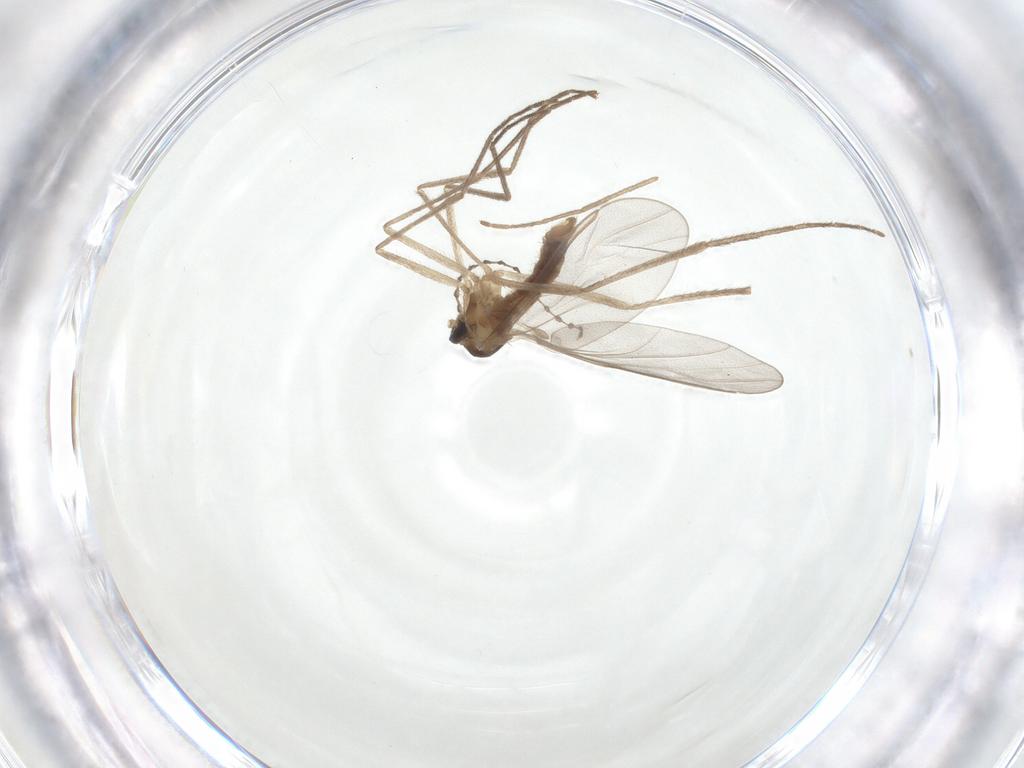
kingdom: Animalia
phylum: Arthropoda
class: Insecta
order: Diptera
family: Cecidomyiidae
